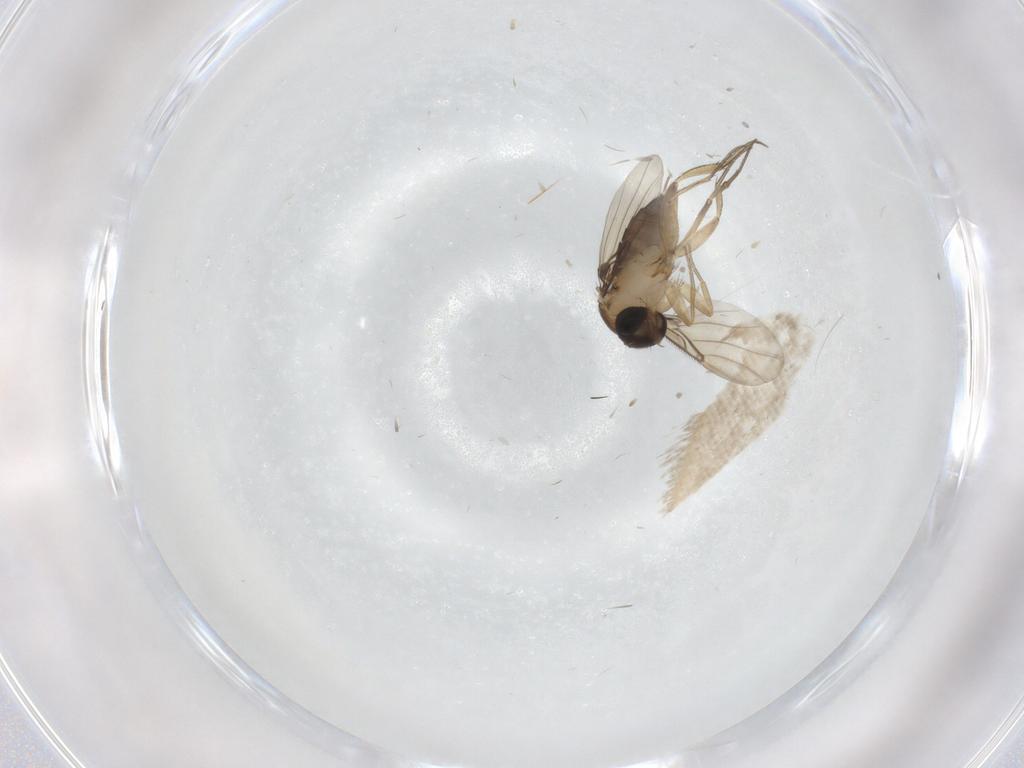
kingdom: Animalia
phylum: Arthropoda
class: Insecta
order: Diptera
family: Phoridae
